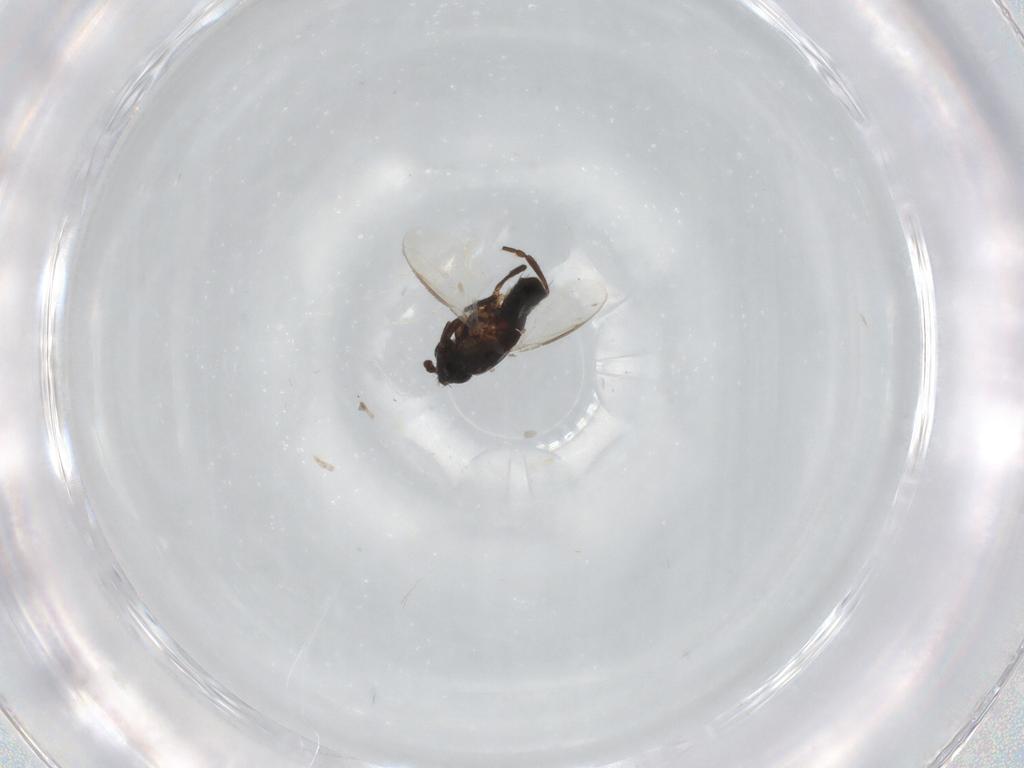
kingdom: Animalia
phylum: Arthropoda
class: Insecta
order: Diptera
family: Sphaeroceridae
